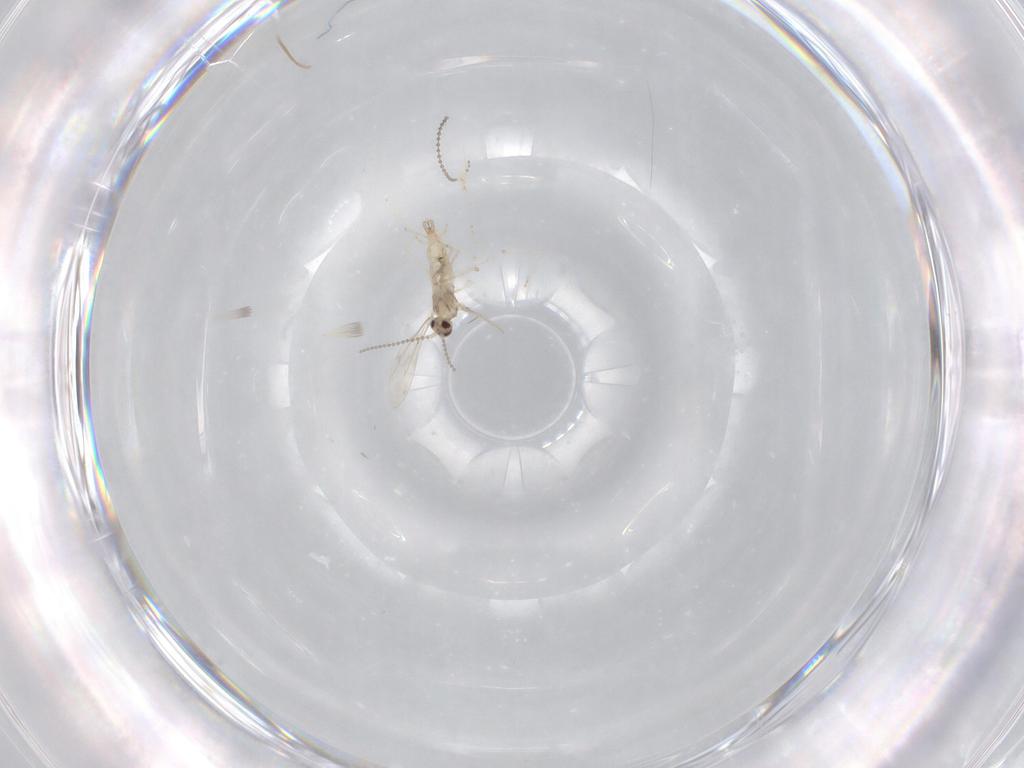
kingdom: Animalia
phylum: Arthropoda
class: Insecta
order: Diptera
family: Cecidomyiidae
